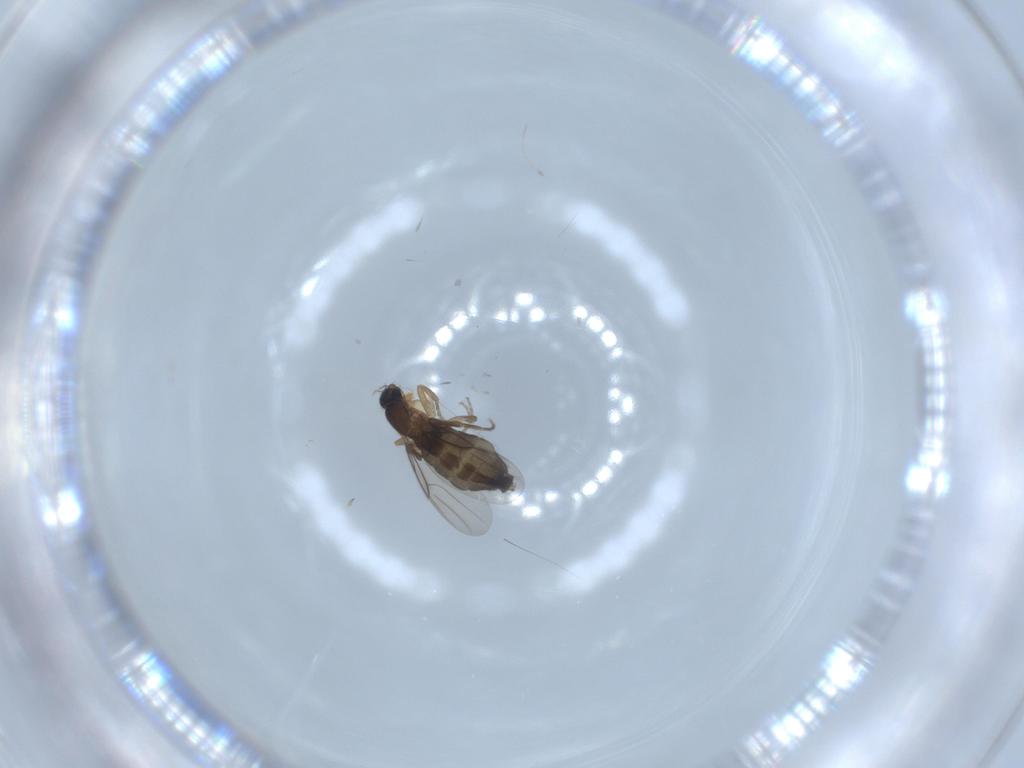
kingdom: Animalia
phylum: Arthropoda
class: Insecta
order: Diptera
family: Phoridae
